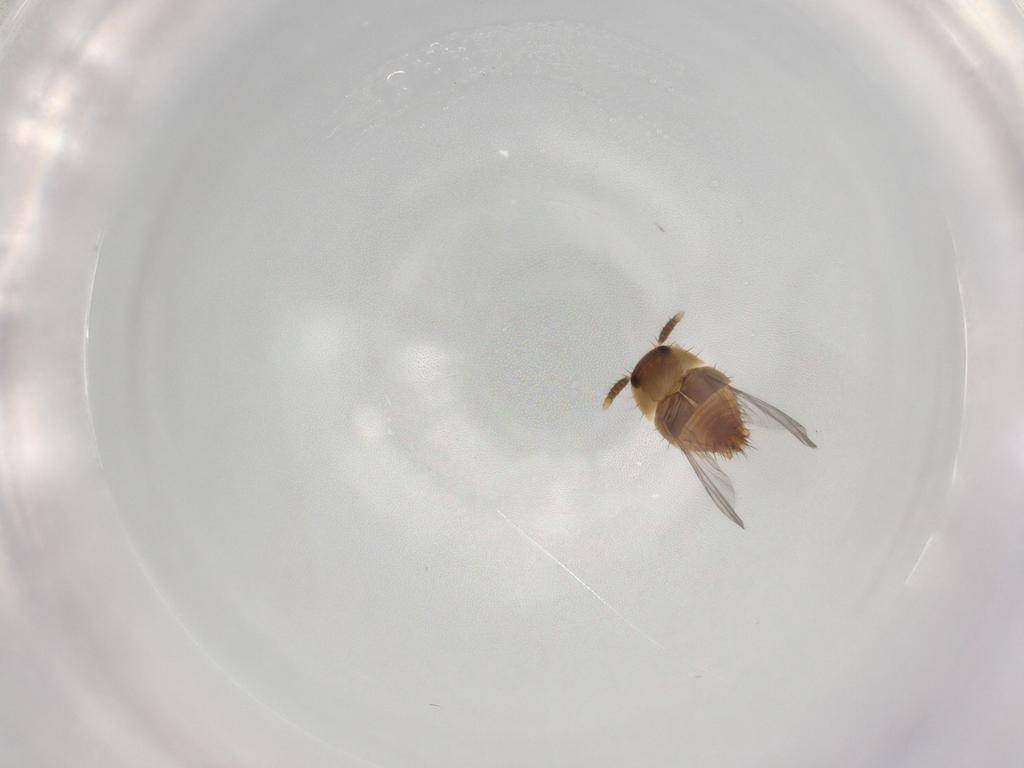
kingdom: Animalia
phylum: Arthropoda
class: Insecta
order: Coleoptera
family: Staphylinidae
